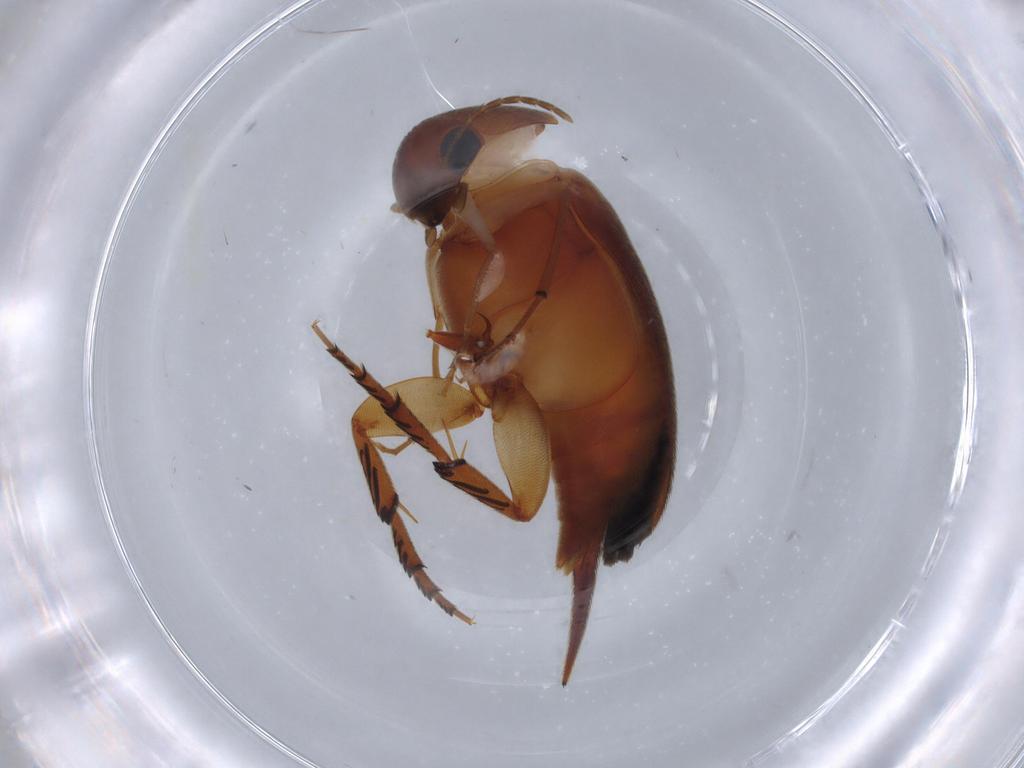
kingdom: Animalia
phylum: Arthropoda
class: Insecta
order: Coleoptera
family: Mordellidae
